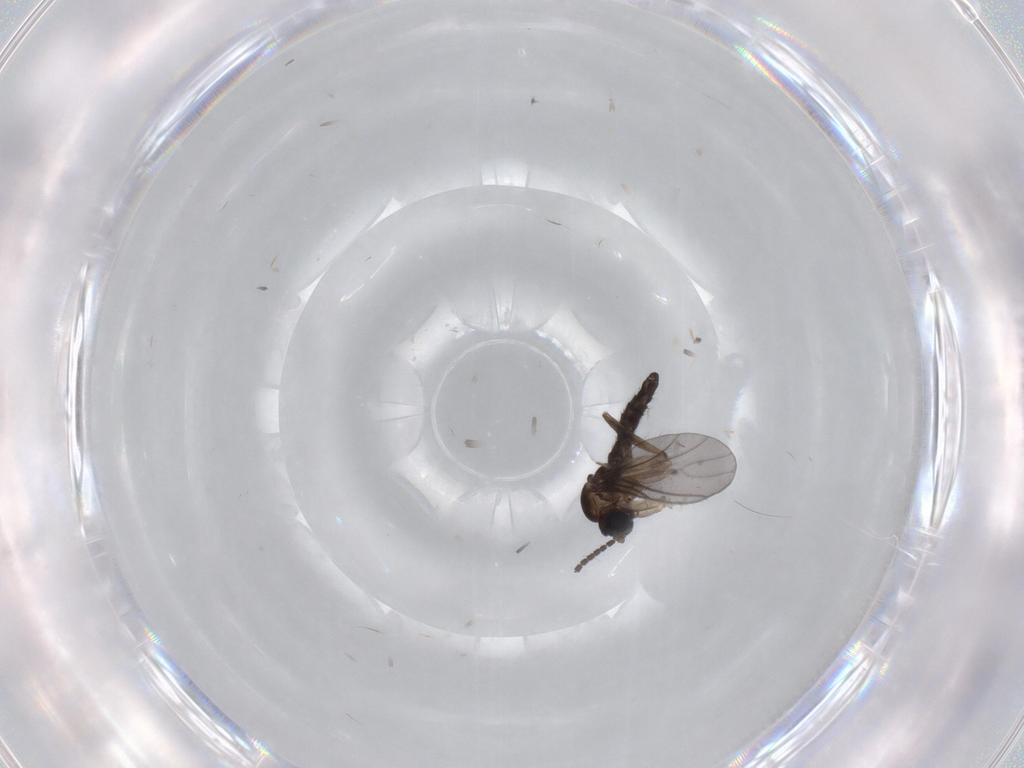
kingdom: Animalia
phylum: Arthropoda
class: Insecta
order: Diptera
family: Sciaridae
